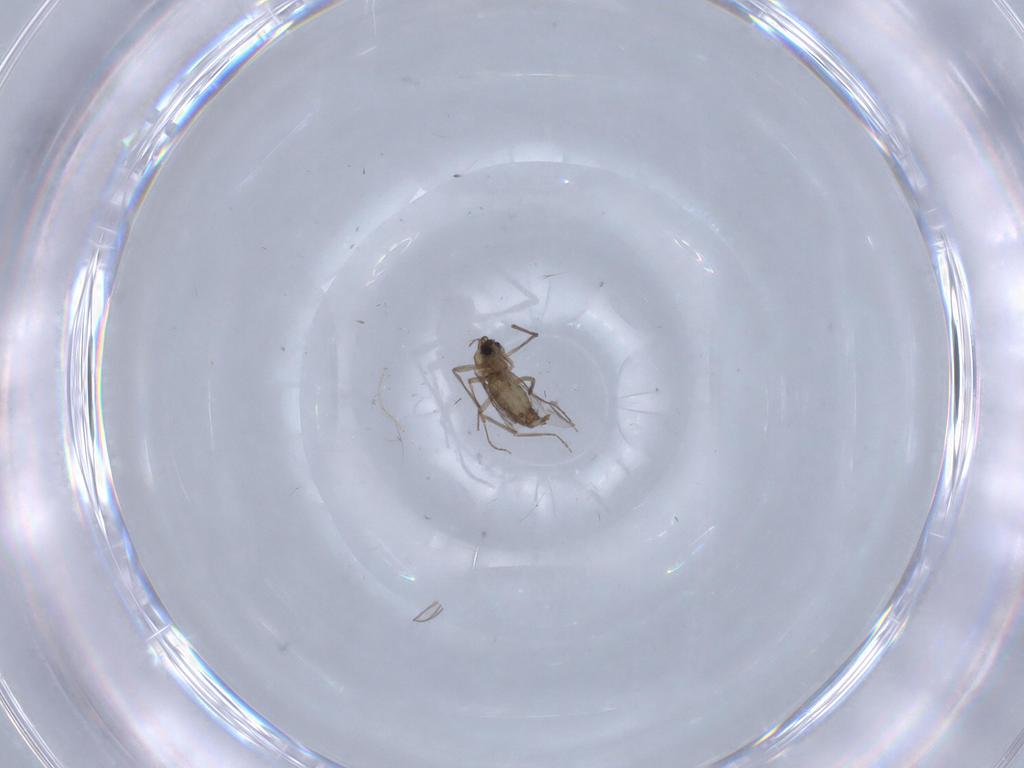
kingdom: Animalia
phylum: Arthropoda
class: Insecta
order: Diptera
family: Chironomidae
